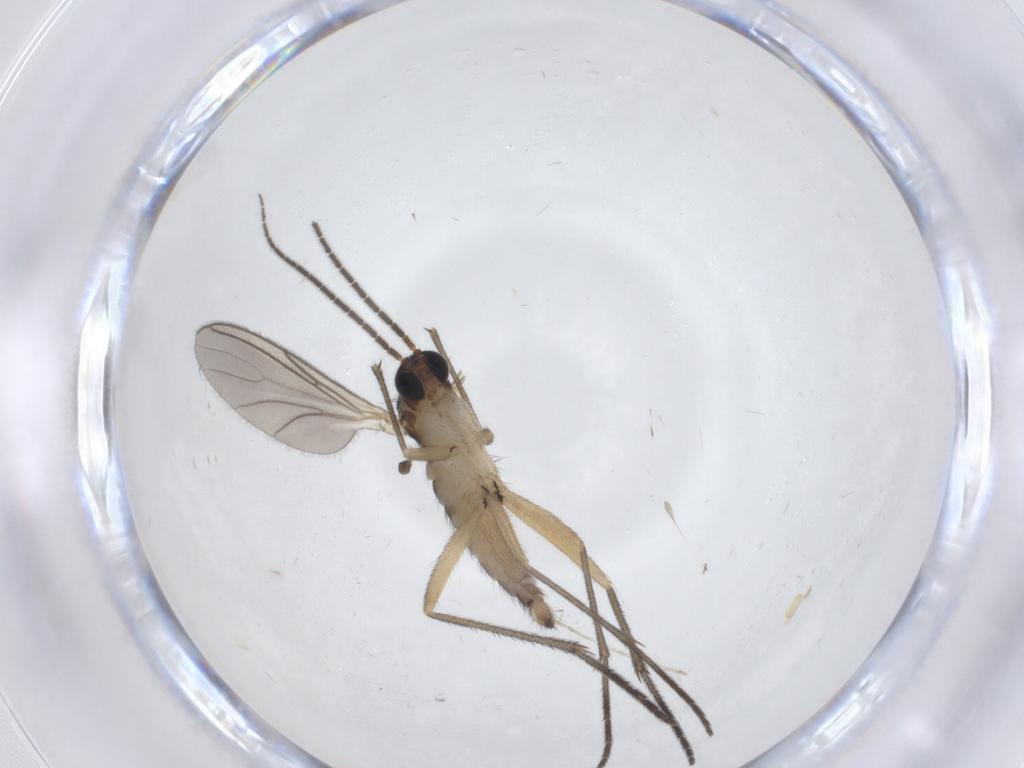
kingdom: Animalia
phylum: Arthropoda
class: Insecta
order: Diptera
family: Sciaridae
